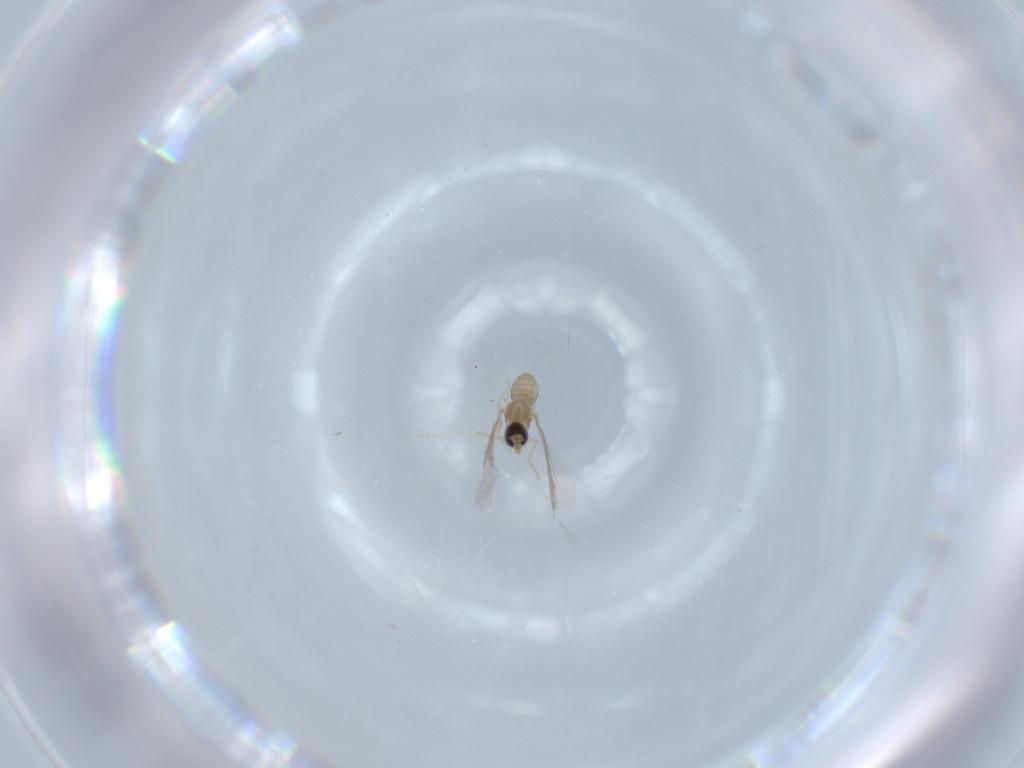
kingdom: Animalia
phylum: Arthropoda
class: Insecta
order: Diptera
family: Cecidomyiidae
